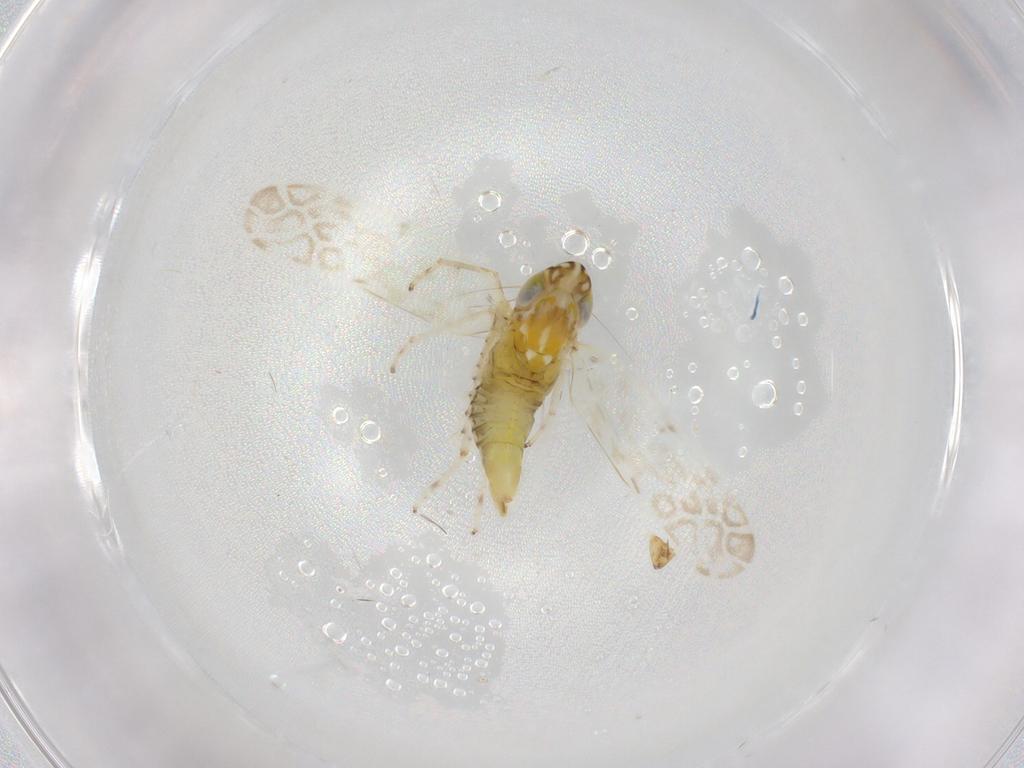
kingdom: Animalia
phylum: Arthropoda
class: Insecta
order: Hemiptera
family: Cicadellidae
